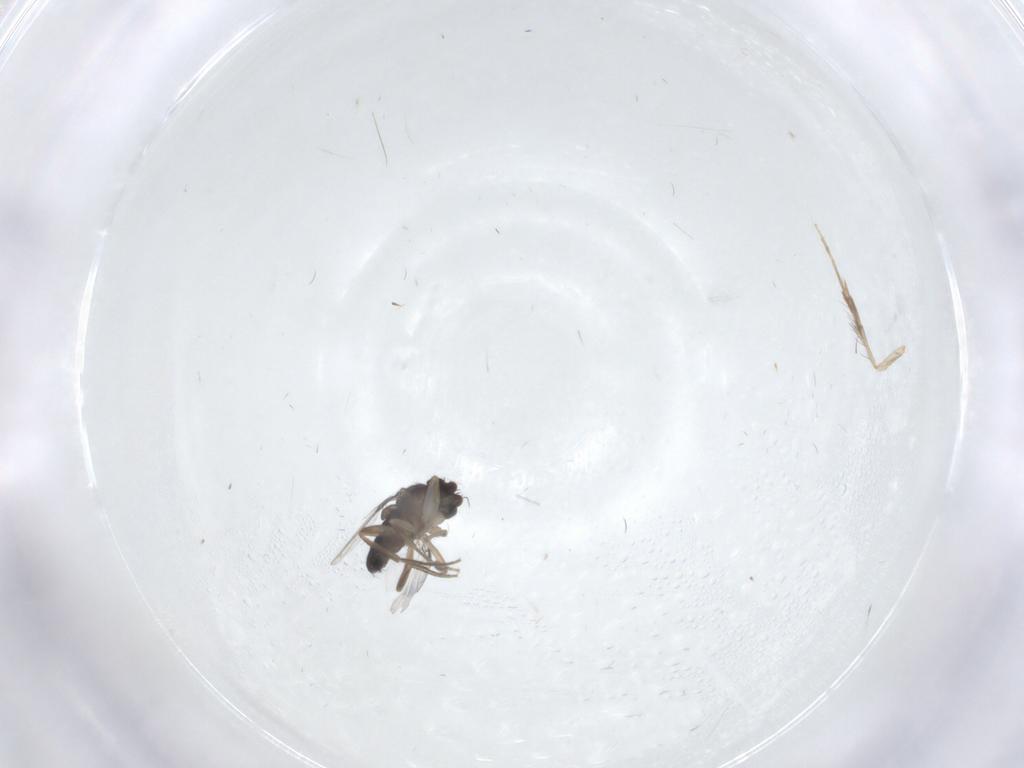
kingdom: Animalia
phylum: Arthropoda
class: Insecta
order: Diptera
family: Phoridae
